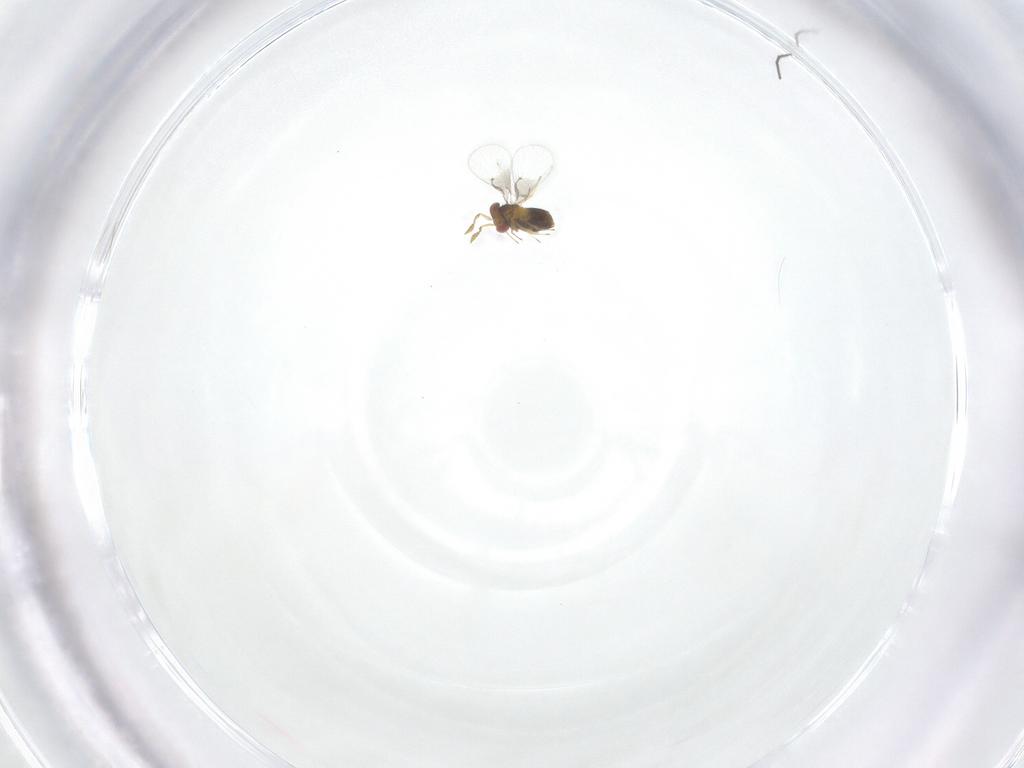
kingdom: Animalia
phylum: Arthropoda
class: Insecta
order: Hymenoptera
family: Trichogrammatidae
